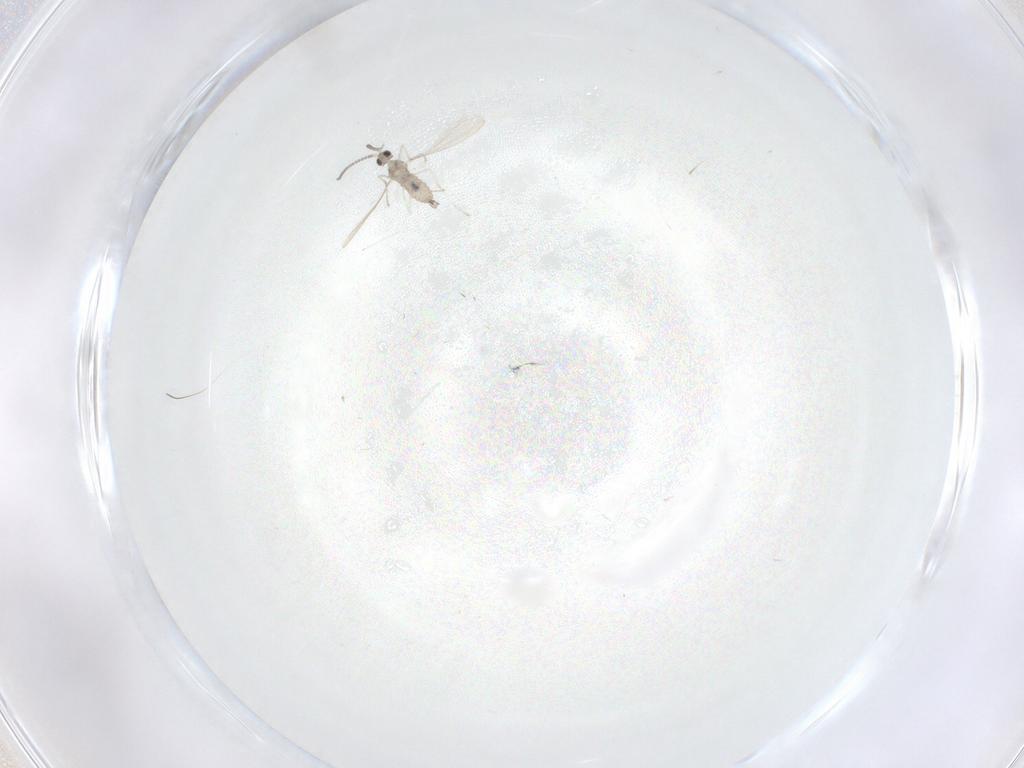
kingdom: Animalia
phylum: Arthropoda
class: Insecta
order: Diptera
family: Cecidomyiidae
